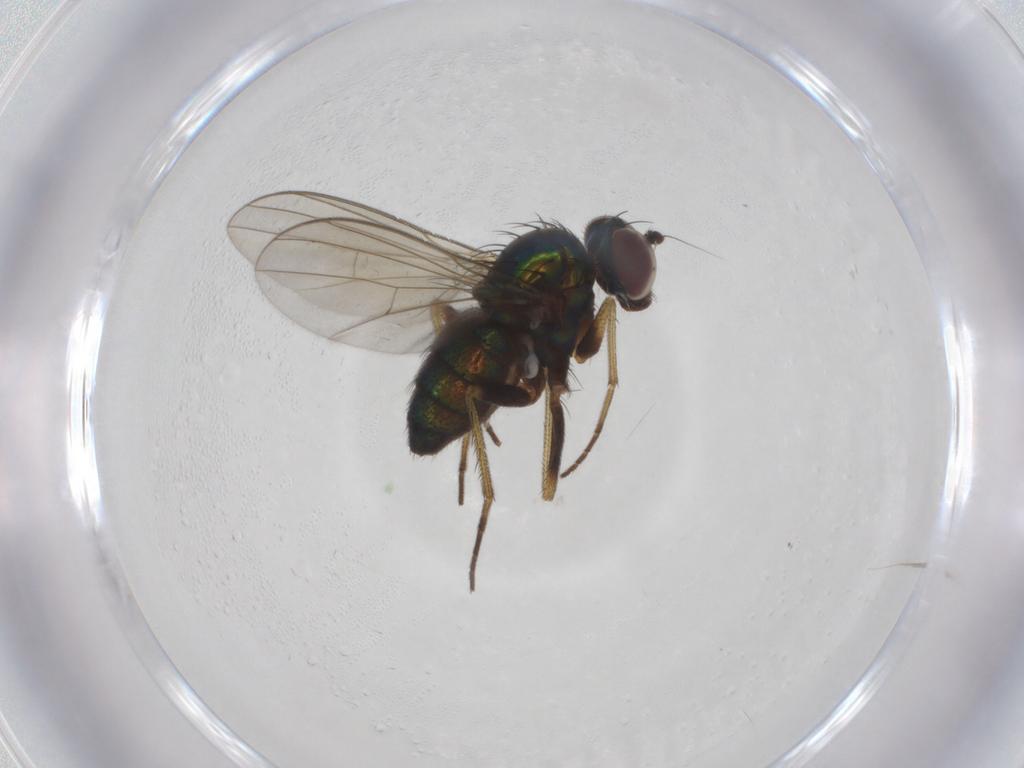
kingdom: Animalia
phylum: Arthropoda
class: Insecta
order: Diptera
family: Dolichopodidae
